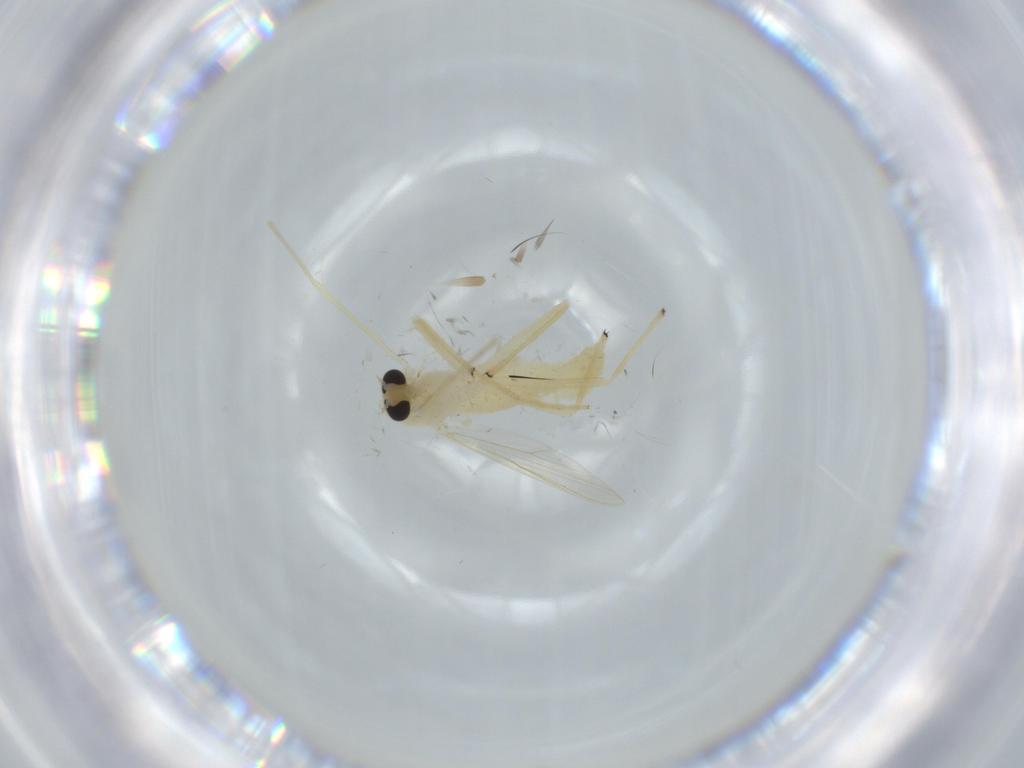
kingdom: Animalia
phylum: Arthropoda
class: Insecta
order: Diptera
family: Chironomidae
